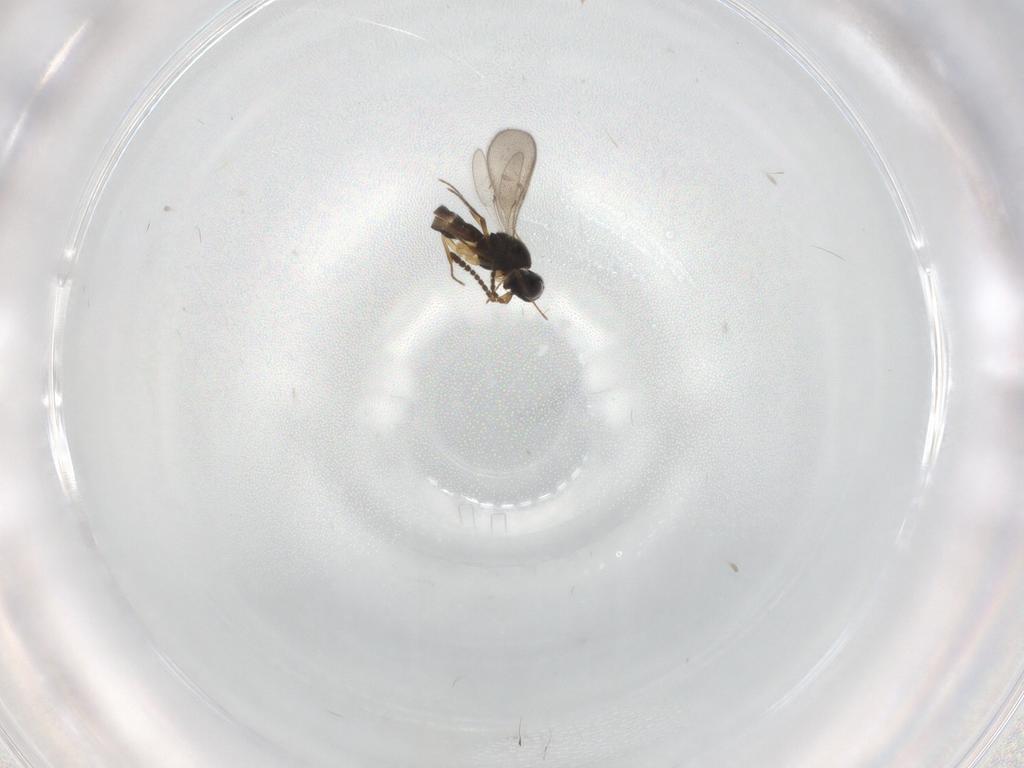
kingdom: Animalia
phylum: Arthropoda
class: Insecta
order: Hymenoptera
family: Scelionidae
